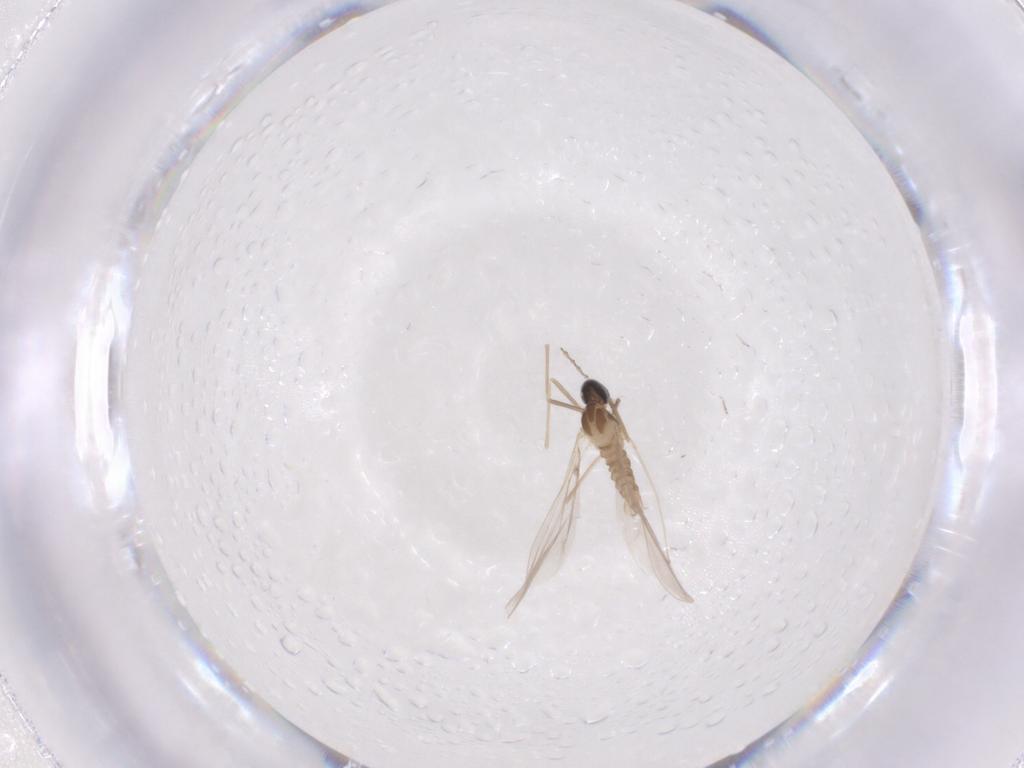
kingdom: Animalia
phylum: Arthropoda
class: Insecta
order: Diptera
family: Cecidomyiidae
